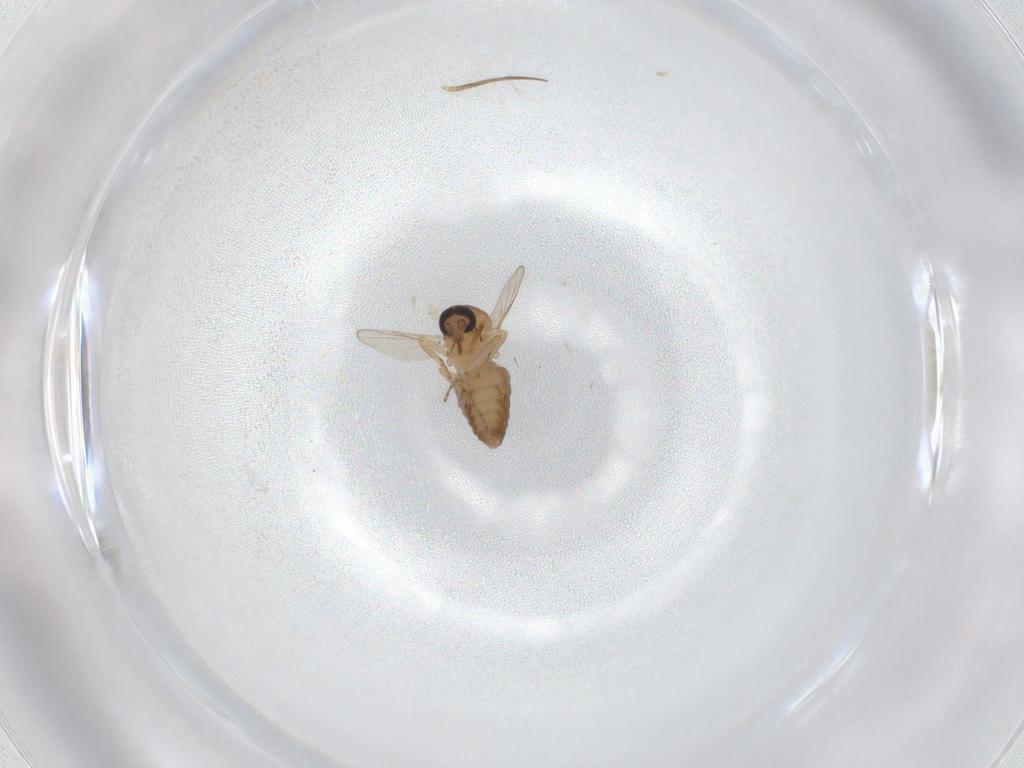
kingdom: Animalia
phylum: Arthropoda
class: Insecta
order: Diptera
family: Ceratopogonidae
